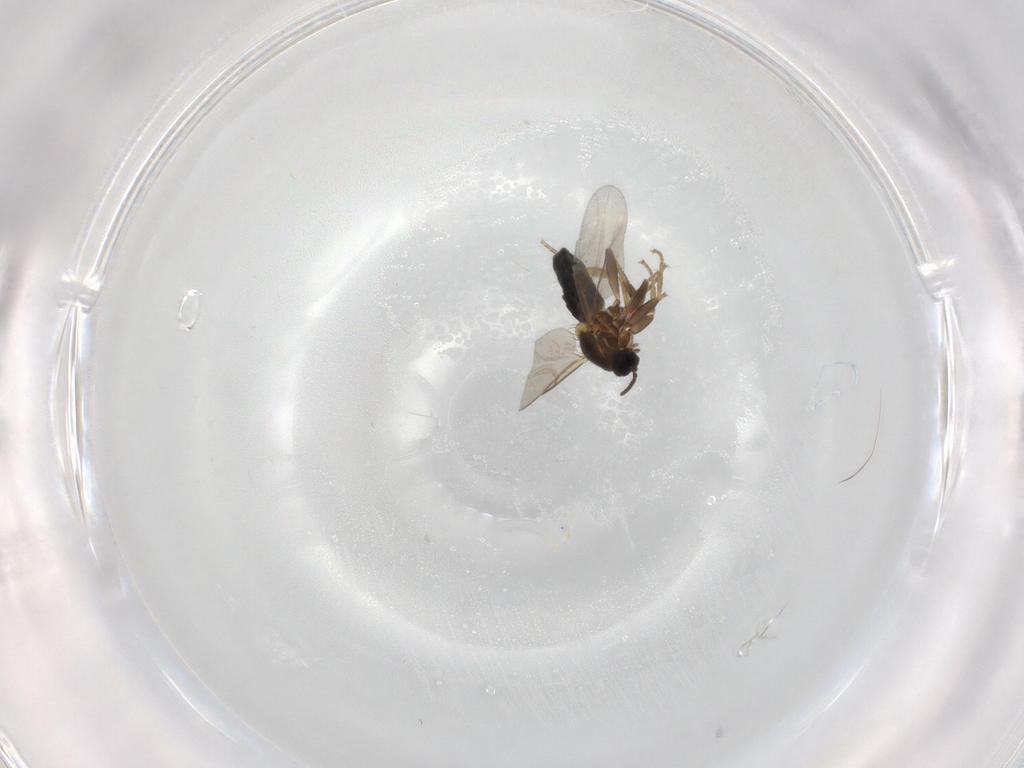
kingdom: Animalia
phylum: Arthropoda
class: Insecta
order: Diptera
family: Scatopsidae
